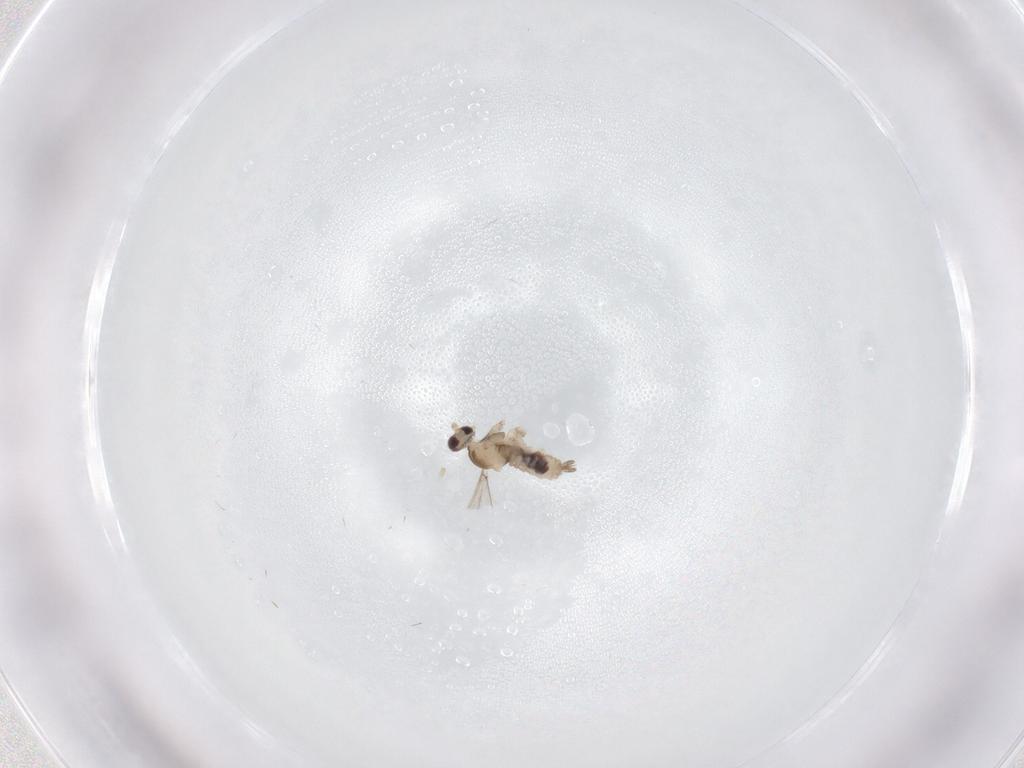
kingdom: Animalia
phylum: Arthropoda
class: Insecta
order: Diptera
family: Cecidomyiidae
